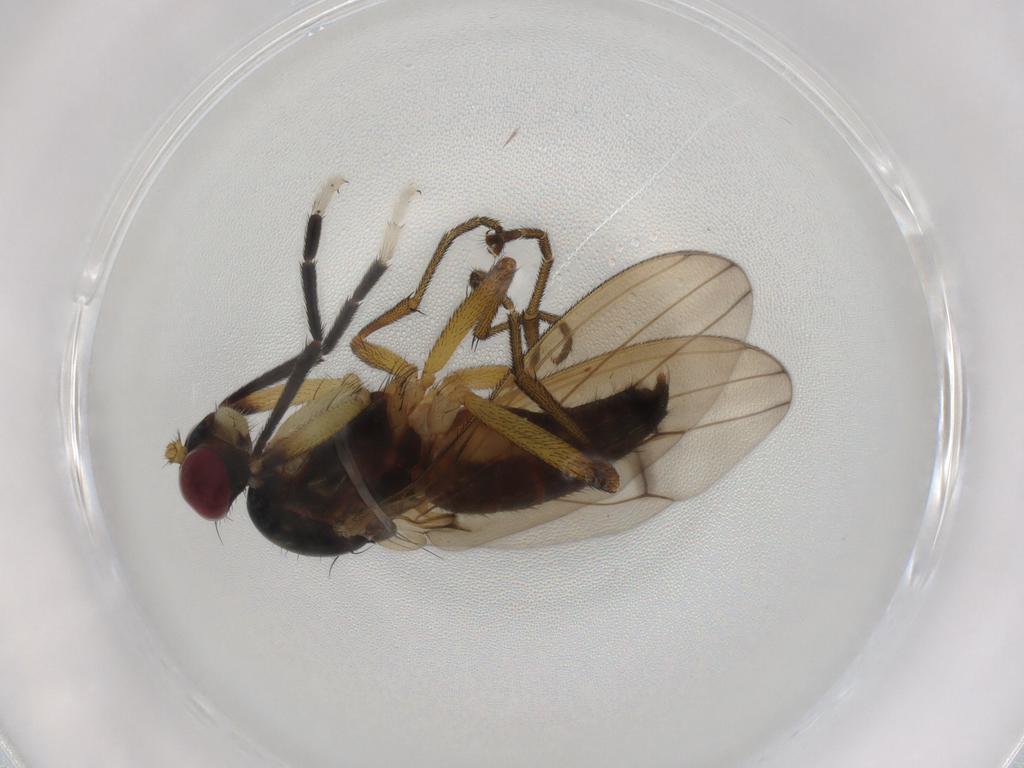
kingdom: Animalia
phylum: Arthropoda
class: Insecta
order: Diptera
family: Sciomyzidae
